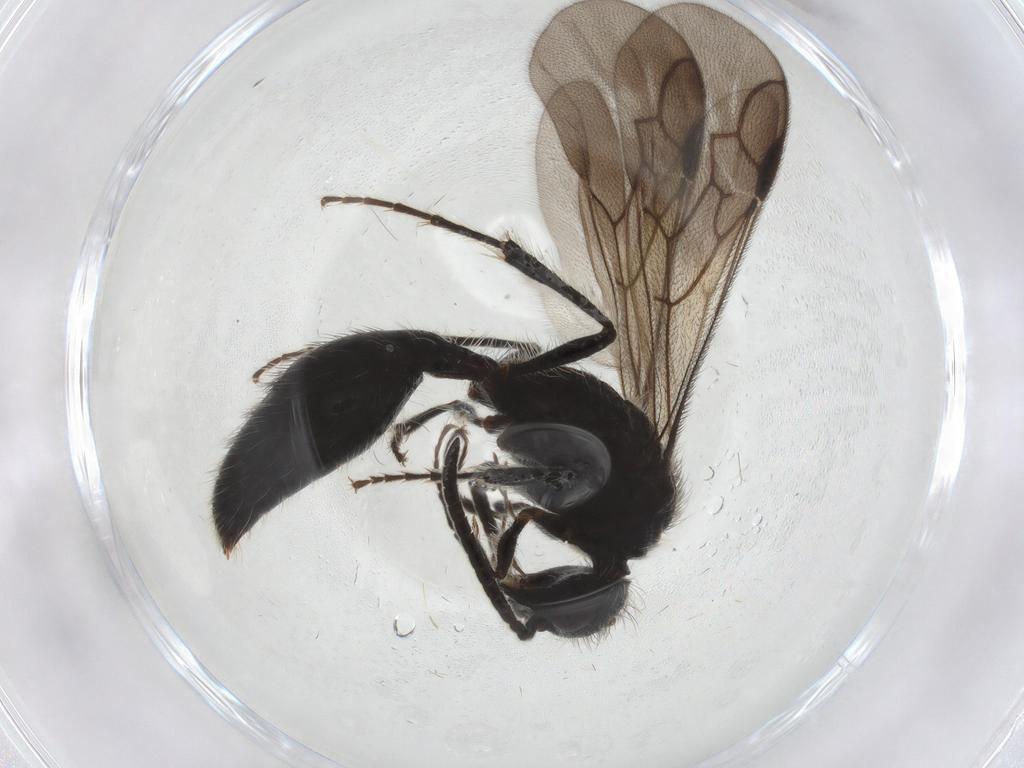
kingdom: Animalia
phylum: Arthropoda
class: Insecta
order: Hymenoptera
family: Mutillidae
